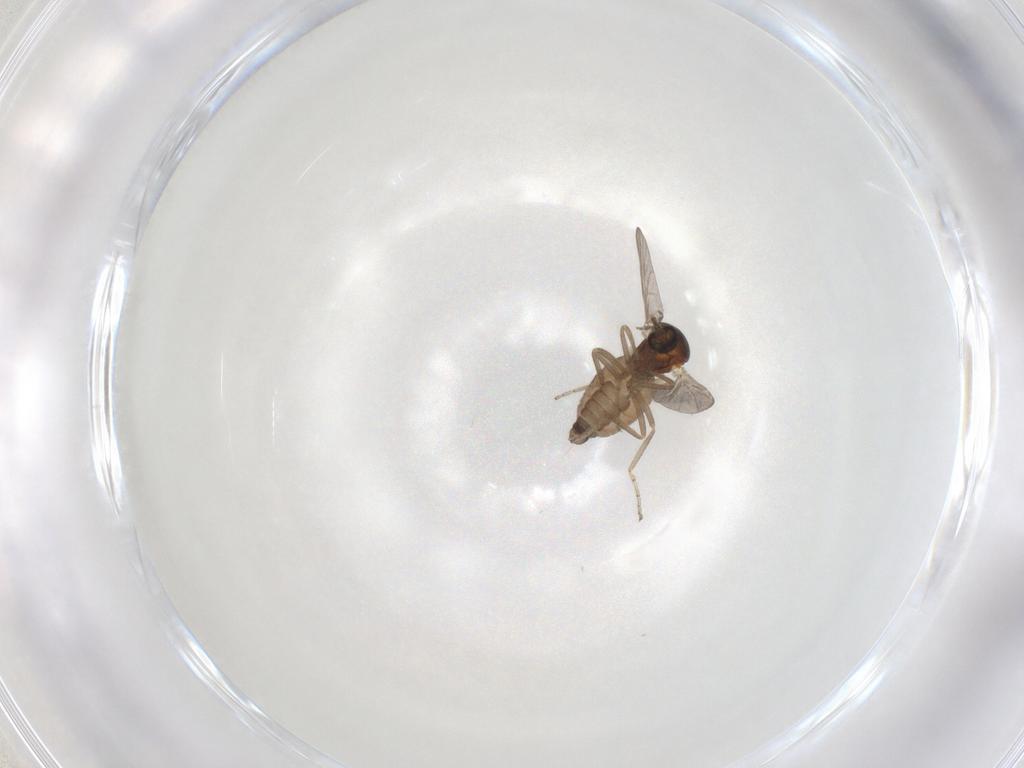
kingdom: Animalia
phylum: Arthropoda
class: Insecta
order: Diptera
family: Ceratopogonidae
